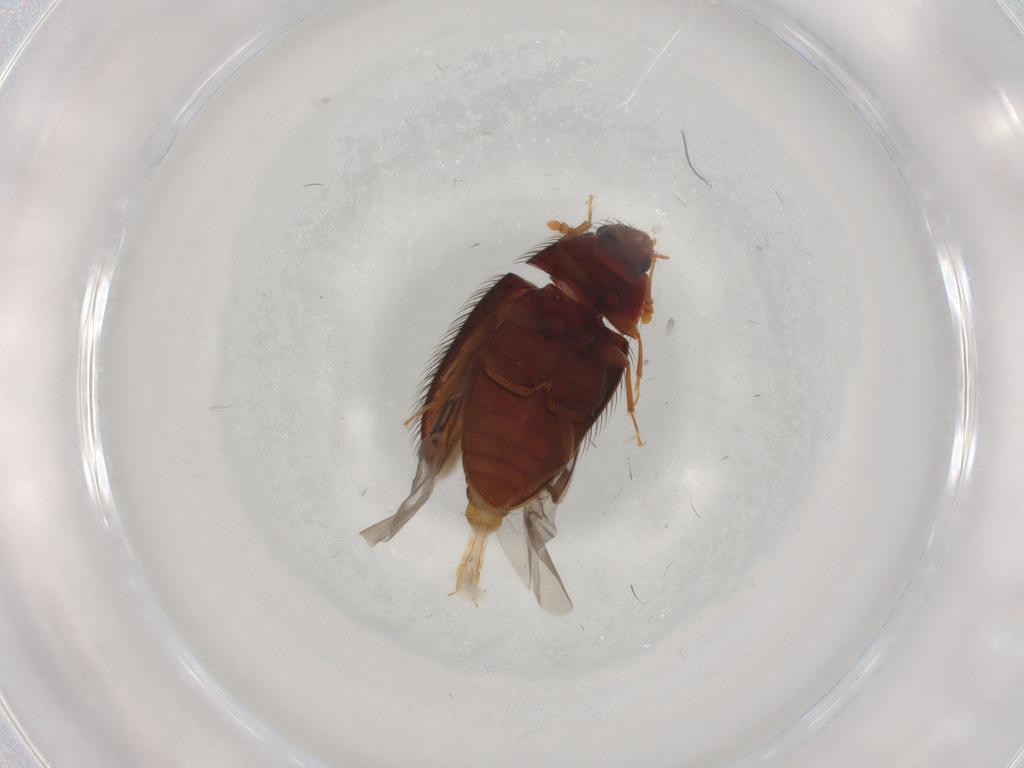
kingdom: Animalia
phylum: Arthropoda
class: Insecta
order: Coleoptera
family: Biphyllidae
